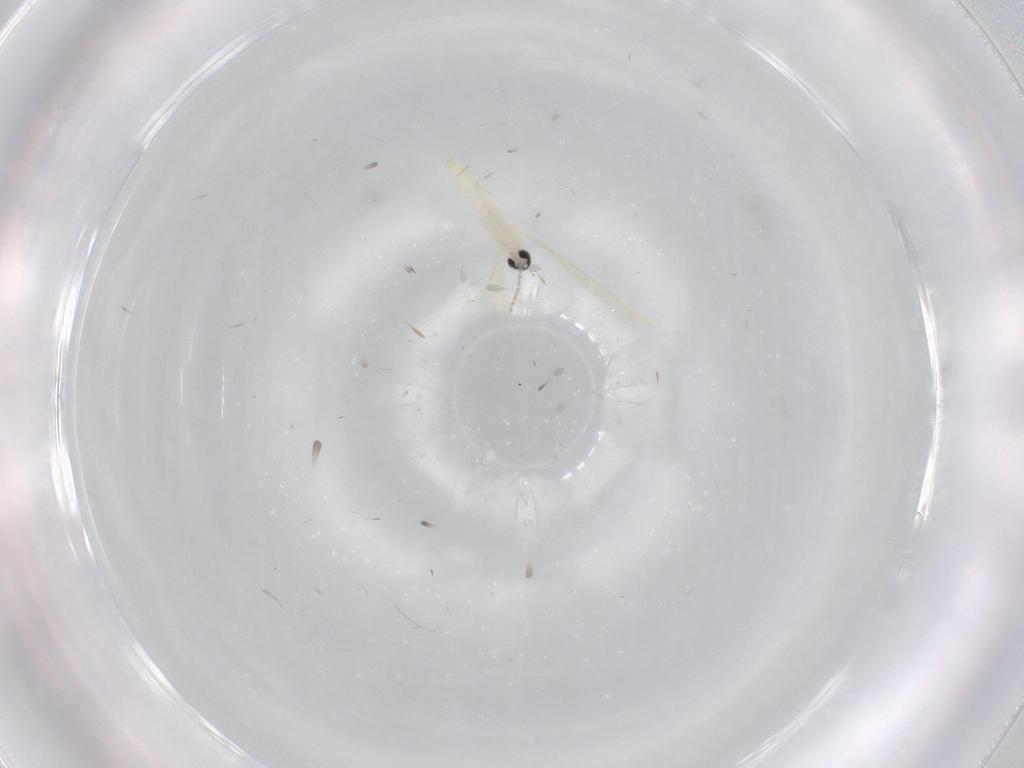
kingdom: Animalia
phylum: Arthropoda
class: Insecta
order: Diptera
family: Cecidomyiidae
